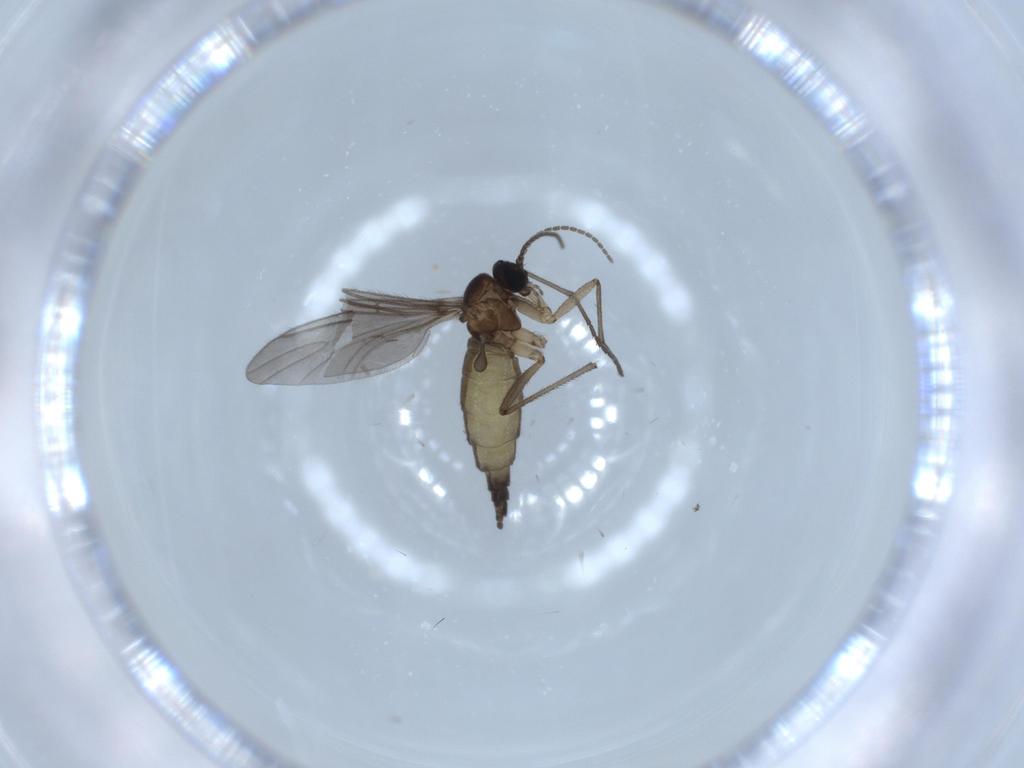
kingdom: Animalia
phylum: Arthropoda
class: Insecta
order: Diptera
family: Sciaridae
